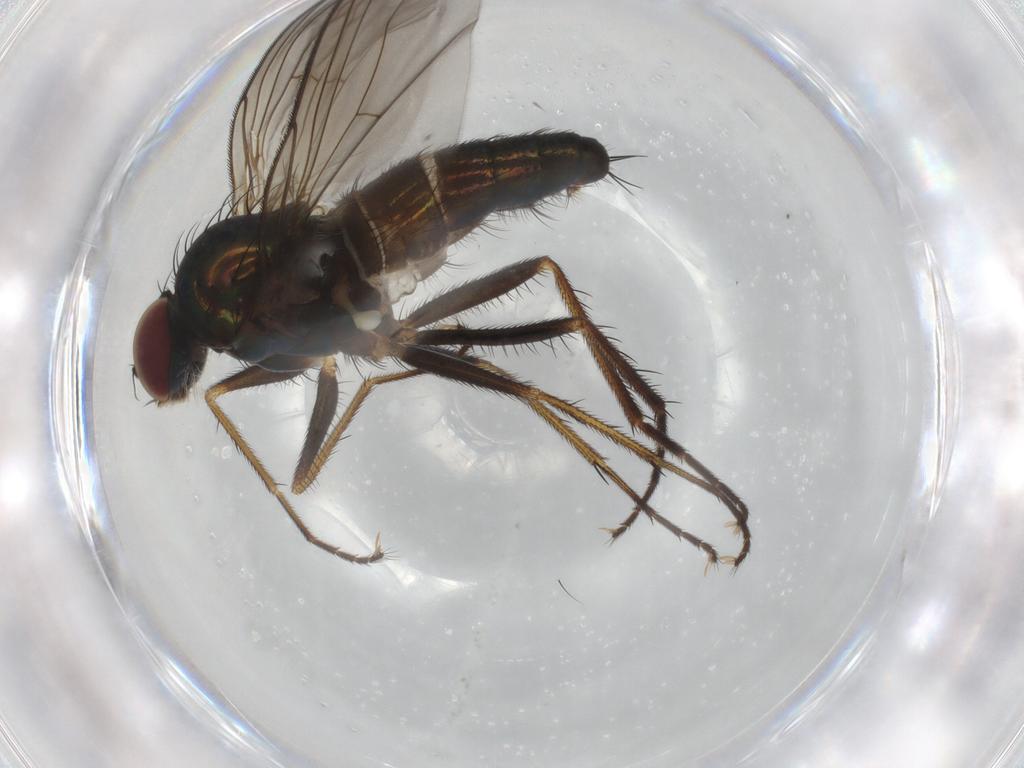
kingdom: Animalia
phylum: Arthropoda
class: Insecta
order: Diptera
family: Dolichopodidae
